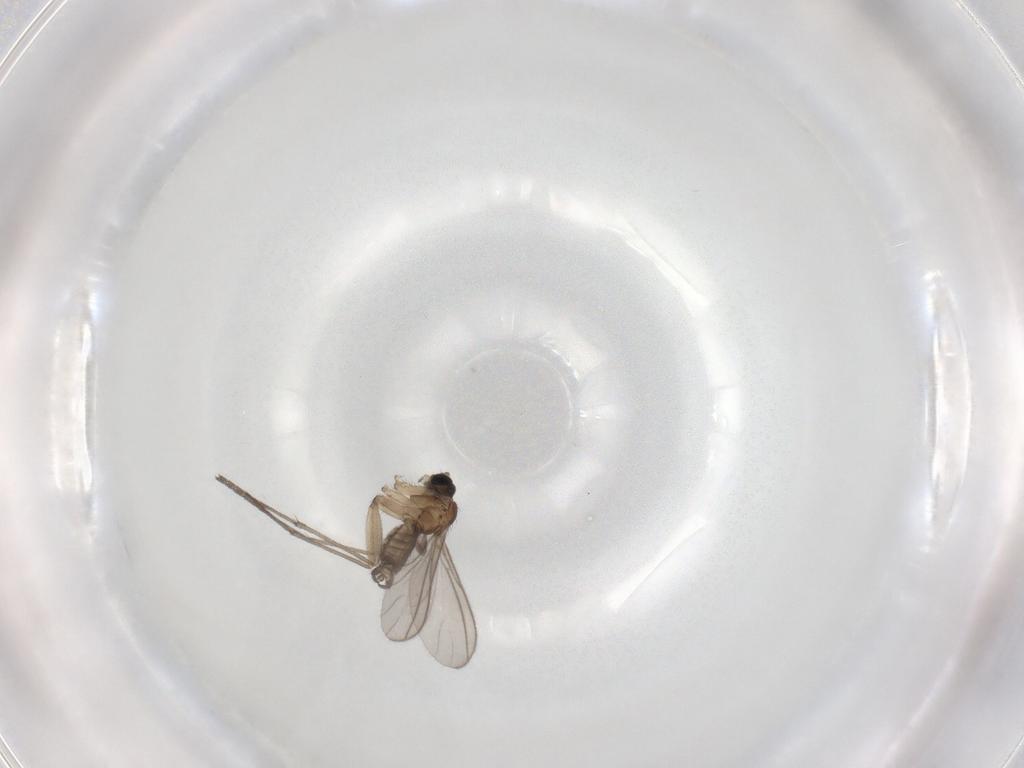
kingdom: Animalia
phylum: Arthropoda
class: Insecta
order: Diptera
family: Sciaridae
